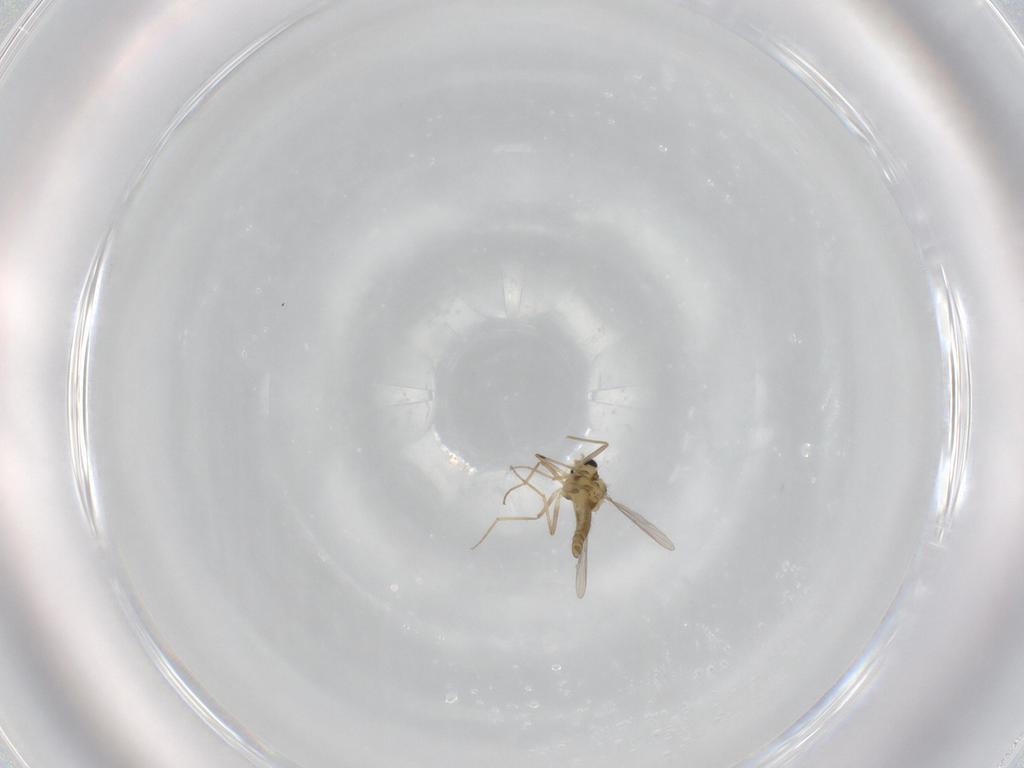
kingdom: Animalia
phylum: Arthropoda
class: Insecta
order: Diptera
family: Chironomidae
